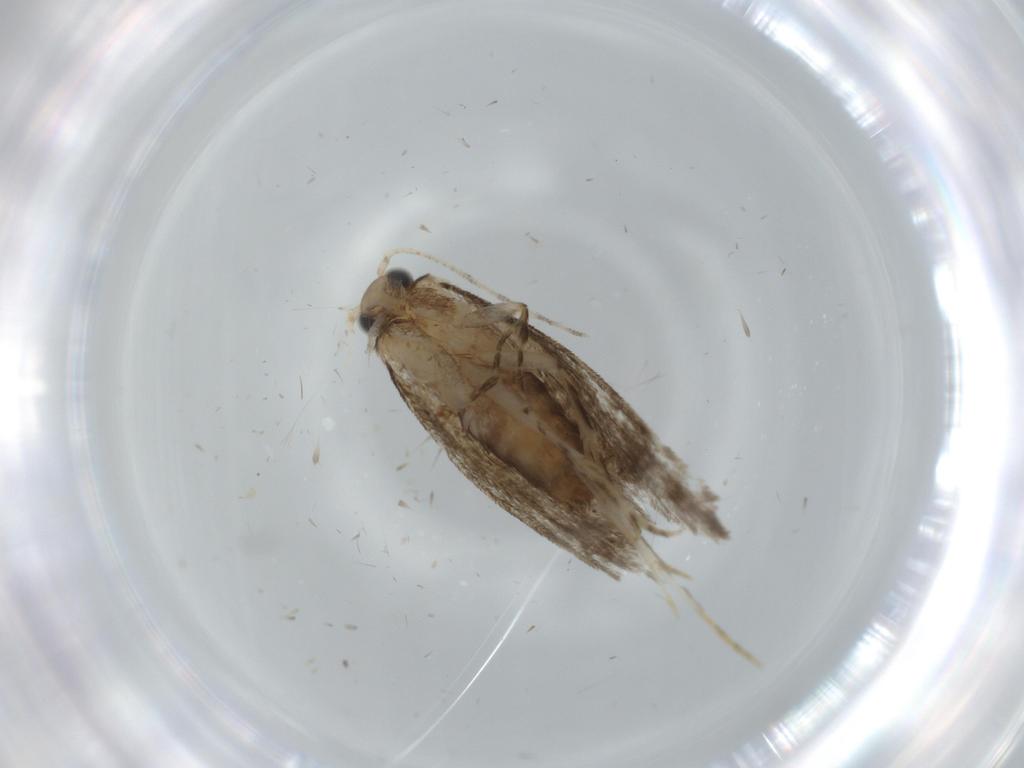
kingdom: Animalia
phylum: Arthropoda
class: Insecta
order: Lepidoptera
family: Tineidae
